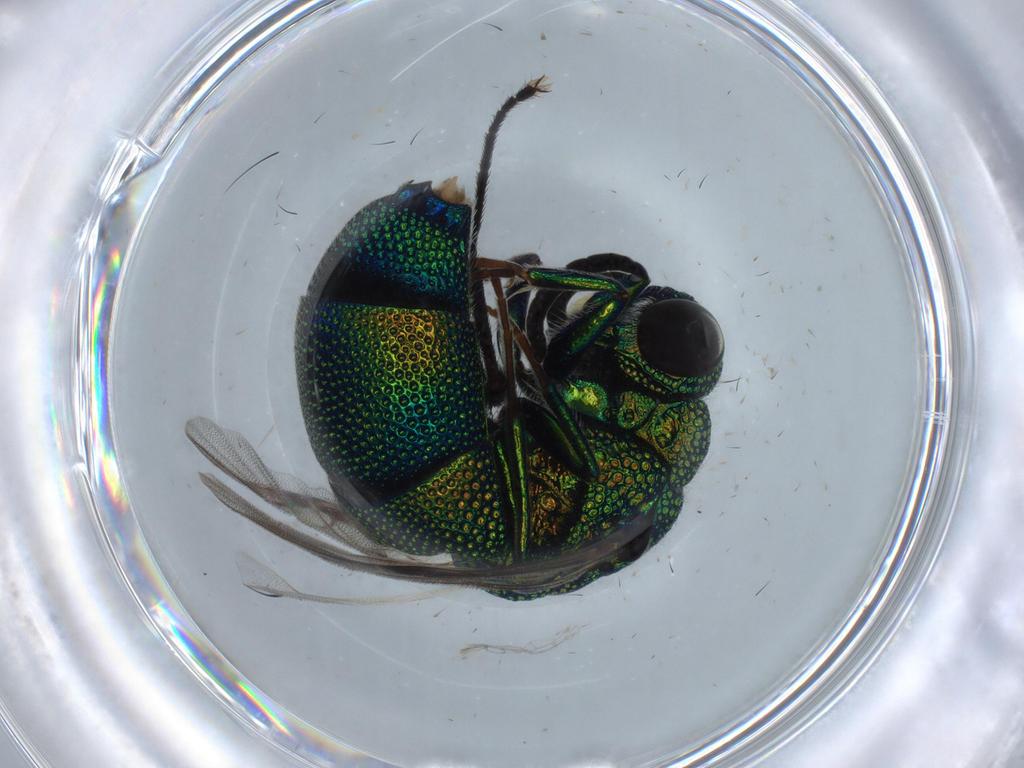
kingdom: Animalia
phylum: Arthropoda
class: Insecta
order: Hymenoptera
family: Chrysididae
